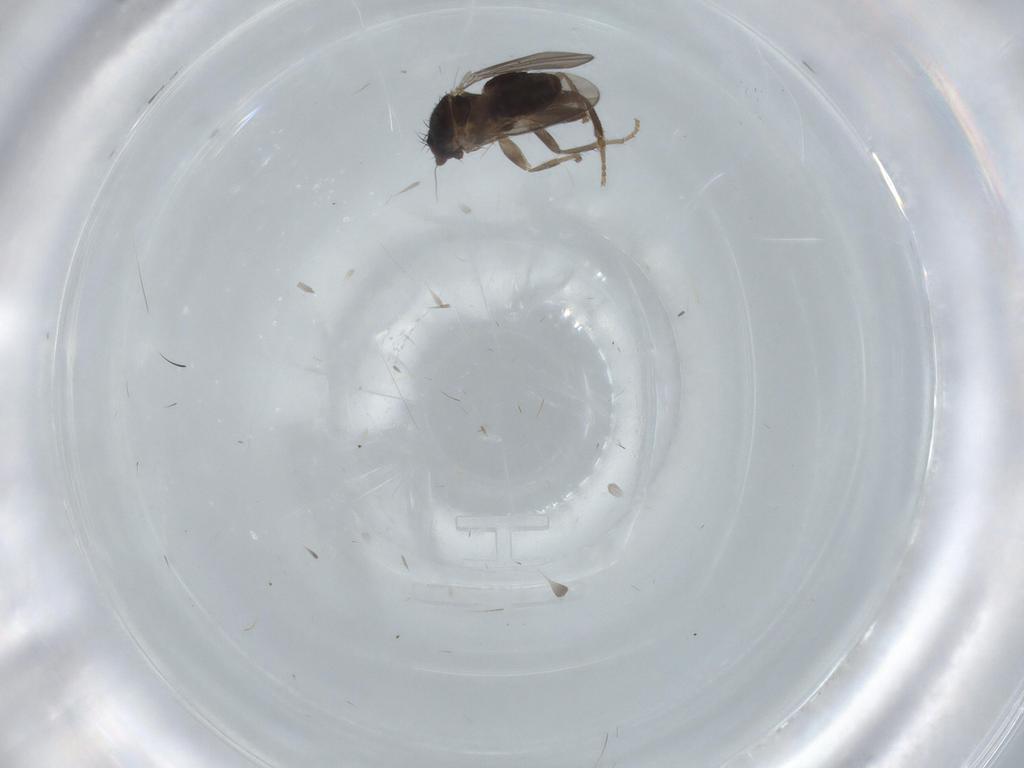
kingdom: Animalia
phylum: Arthropoda
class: Insecta
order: Diptera
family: Sphaeroceridae
